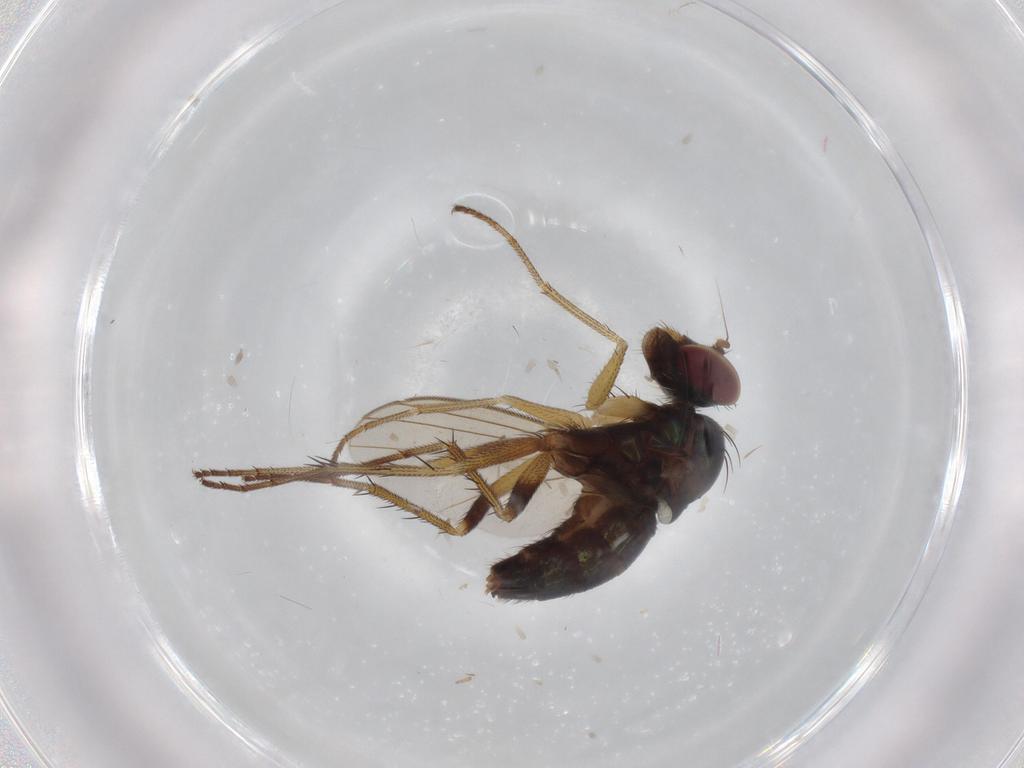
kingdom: Animalia
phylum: Arthropoda
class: Insecta
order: Diptera
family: Dolichopodidae
